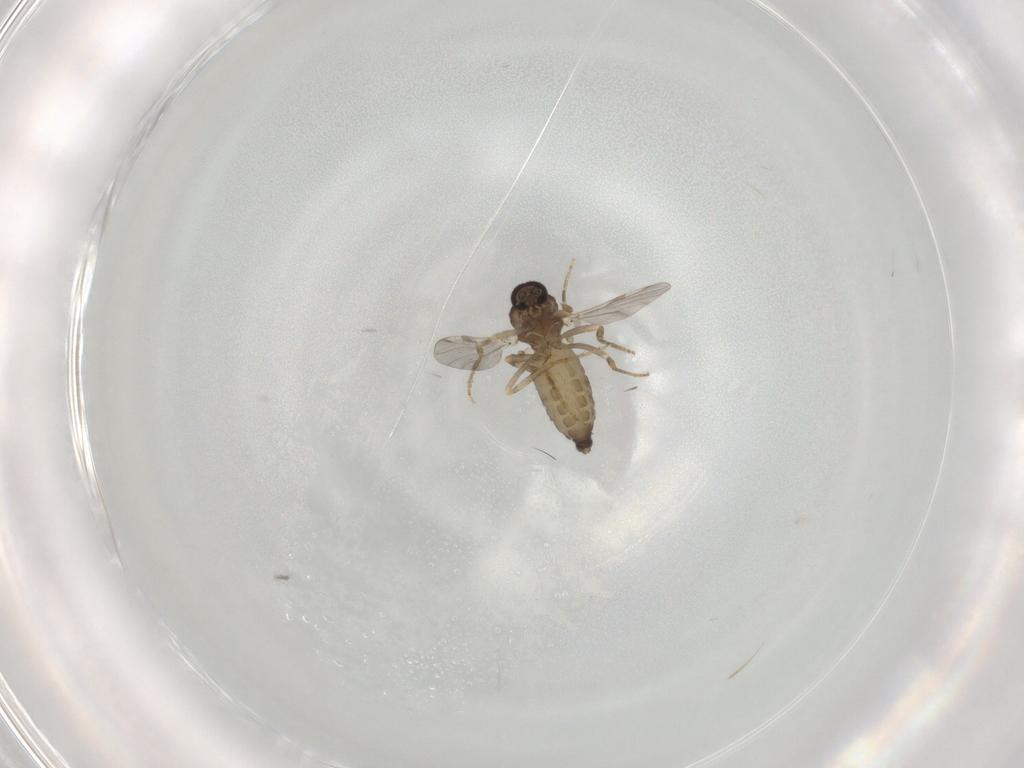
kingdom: Animalia
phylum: Arthropoda
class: Insecta
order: Diptera
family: Ceratopogonidae
